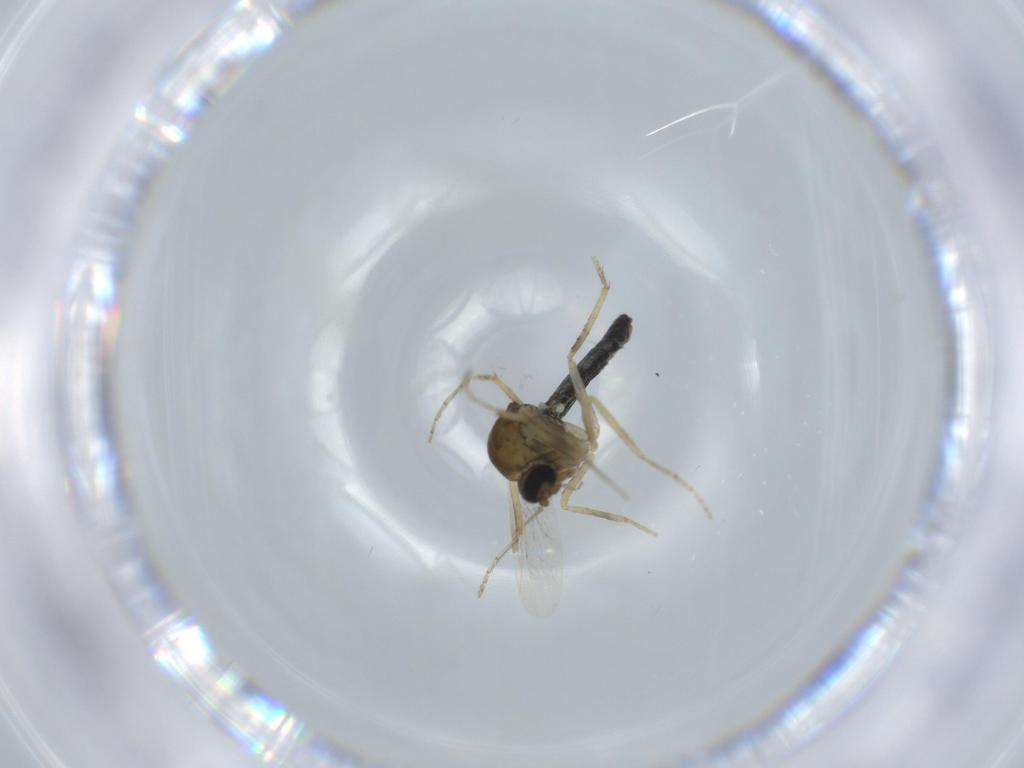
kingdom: Animalia
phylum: Arthropoda
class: Insecta
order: Diptera
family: Ceratopogonidae
